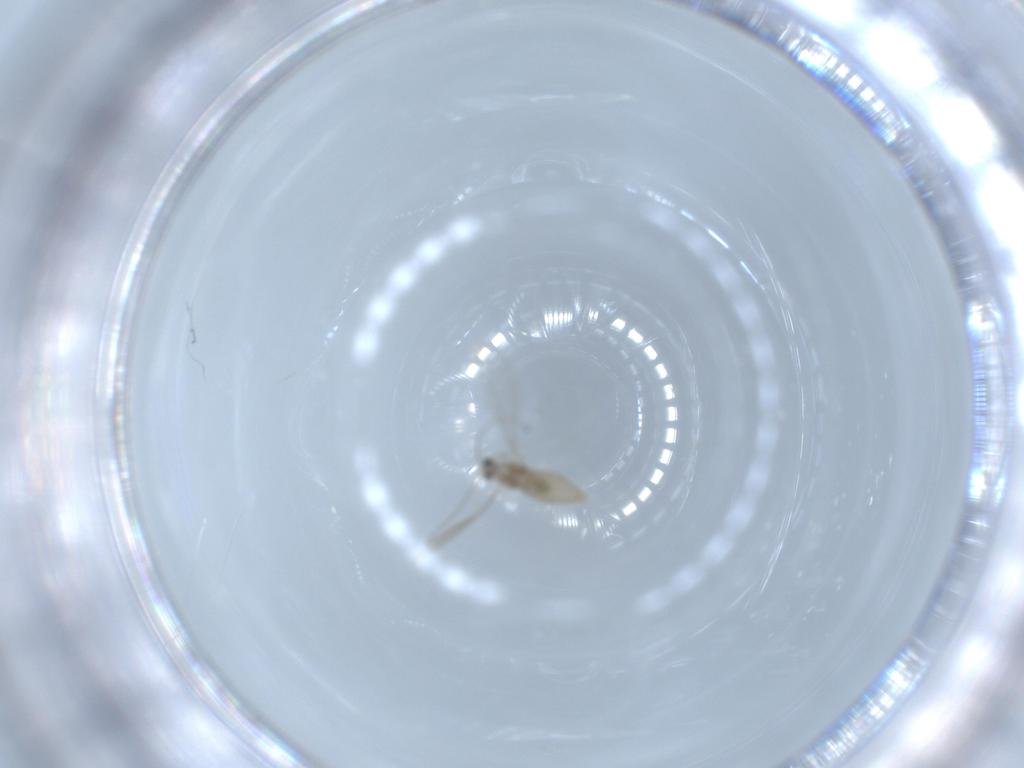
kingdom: Animalia
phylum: Arthropoda
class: Insecta
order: Diptera
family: Cecidomyiidae
